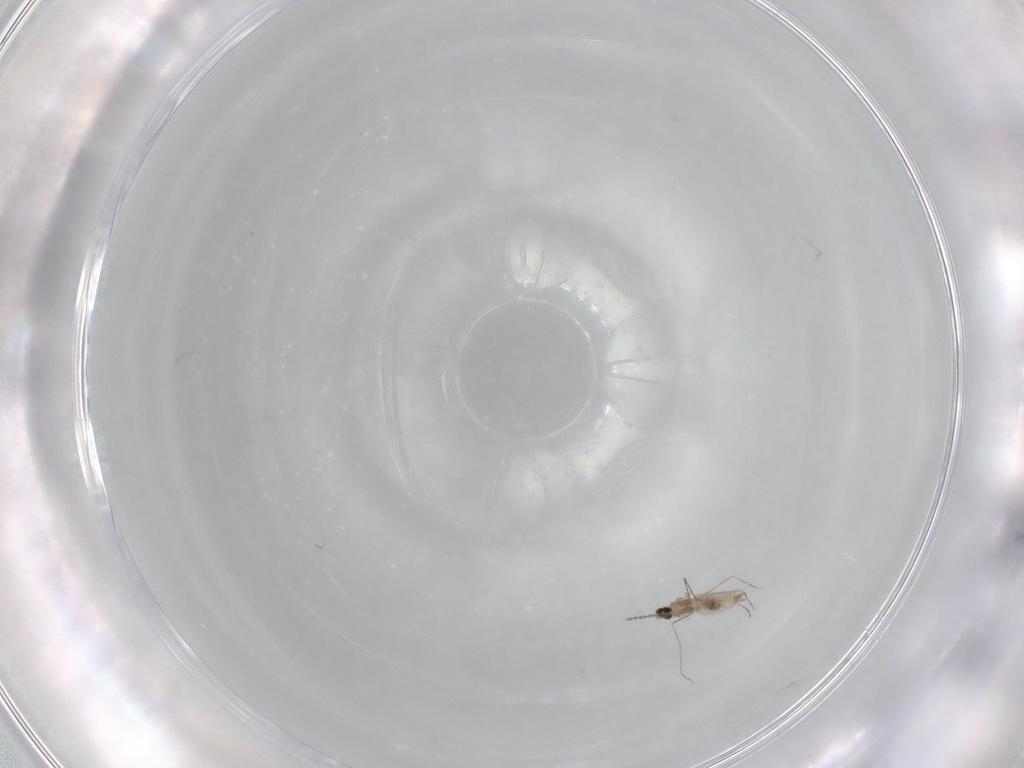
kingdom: Animalia
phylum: Arthropoda
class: Insecta
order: Diptera
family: Cecidomyiidae
